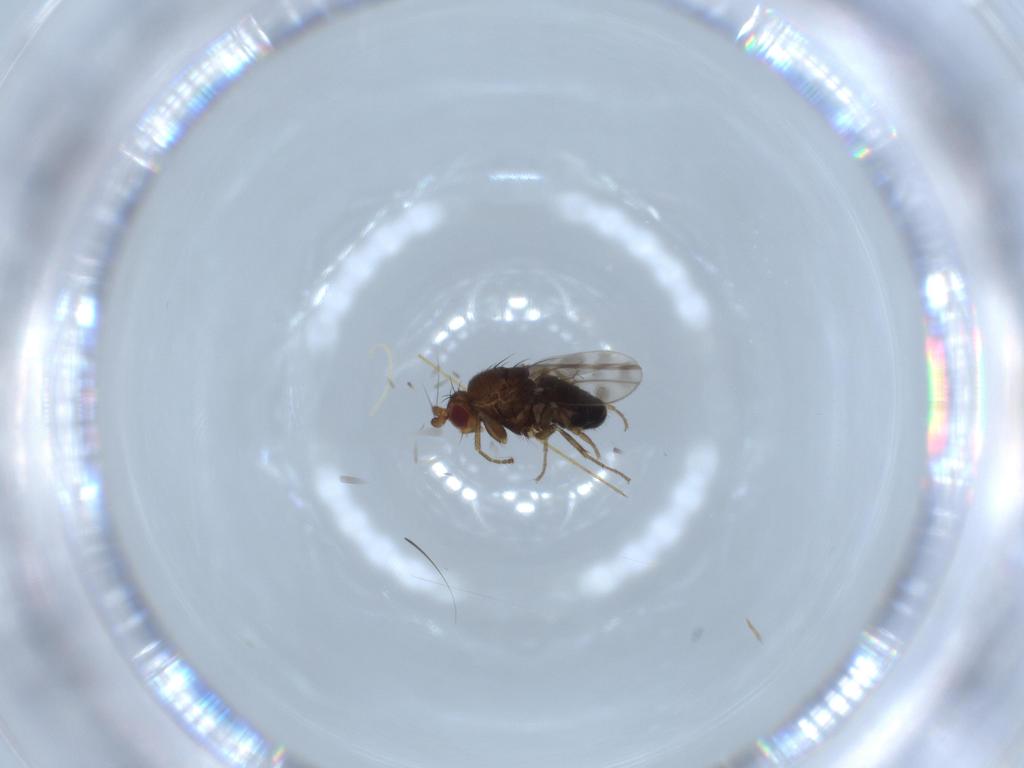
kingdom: Animalia
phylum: Arthropoda
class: Insecta
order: Diptera
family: Sphaeroceridae
